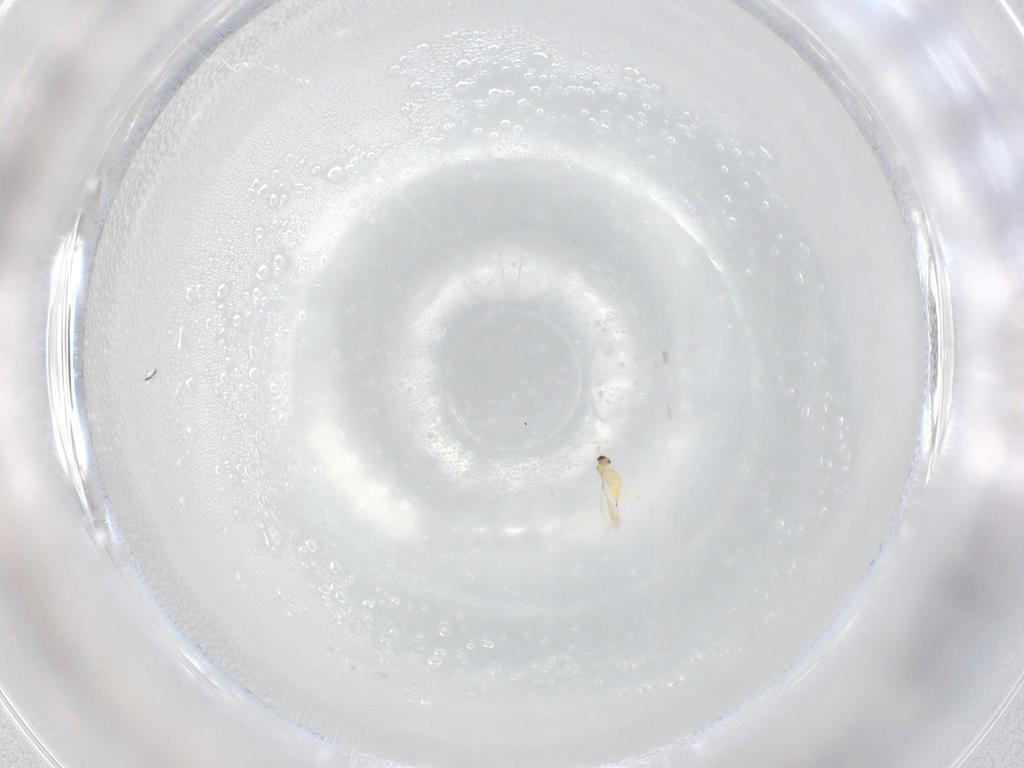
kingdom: Animalia
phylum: Arthropoda
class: Insecta
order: Hymenoptera
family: Mymaridae
